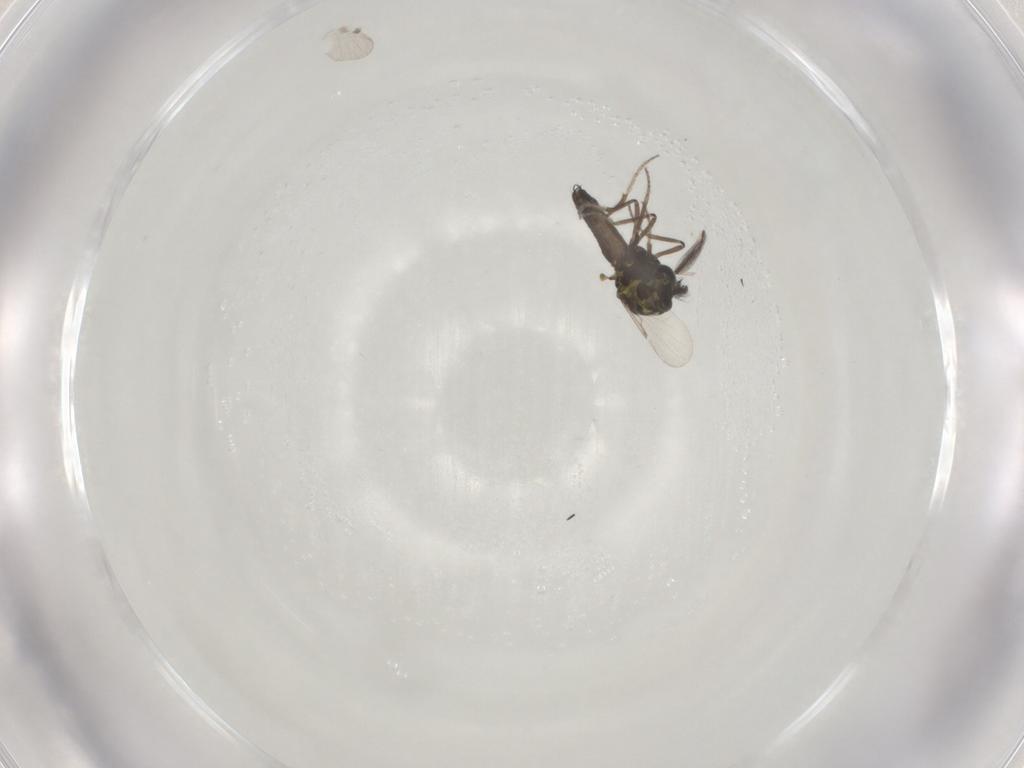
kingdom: Animalia
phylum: Arthropoda
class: Insecta
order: Diptera
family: Ceratopogonidae
